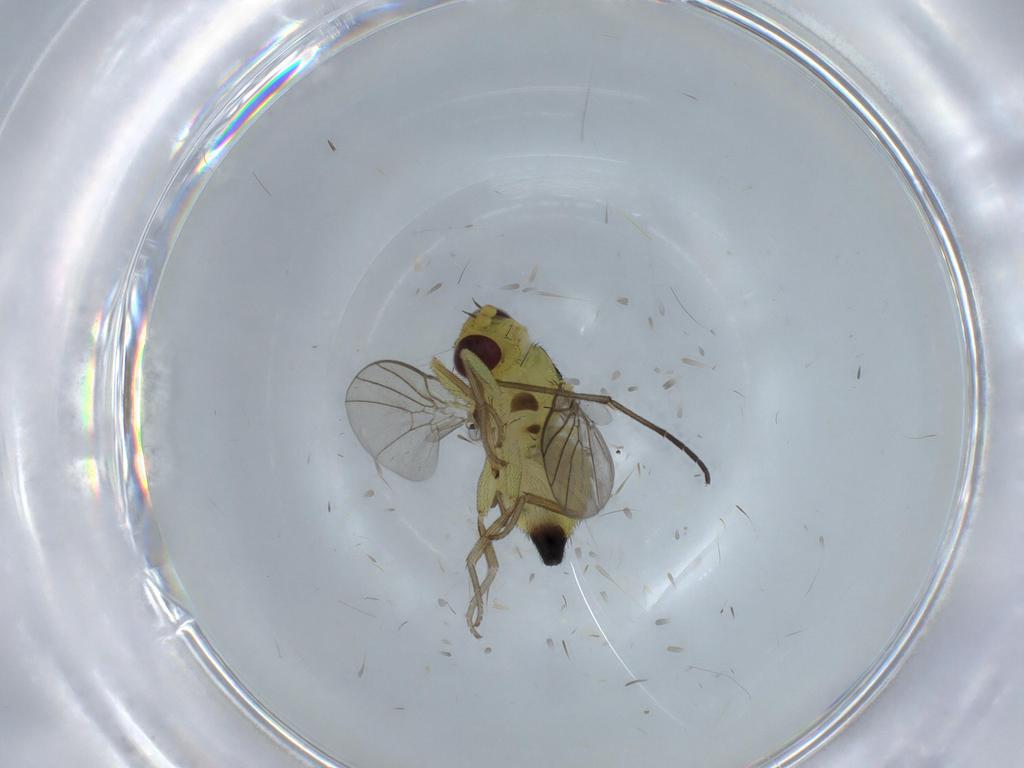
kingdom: Animalia
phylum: Arthropoda
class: Insecta
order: Diptera
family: Agromyzidae
